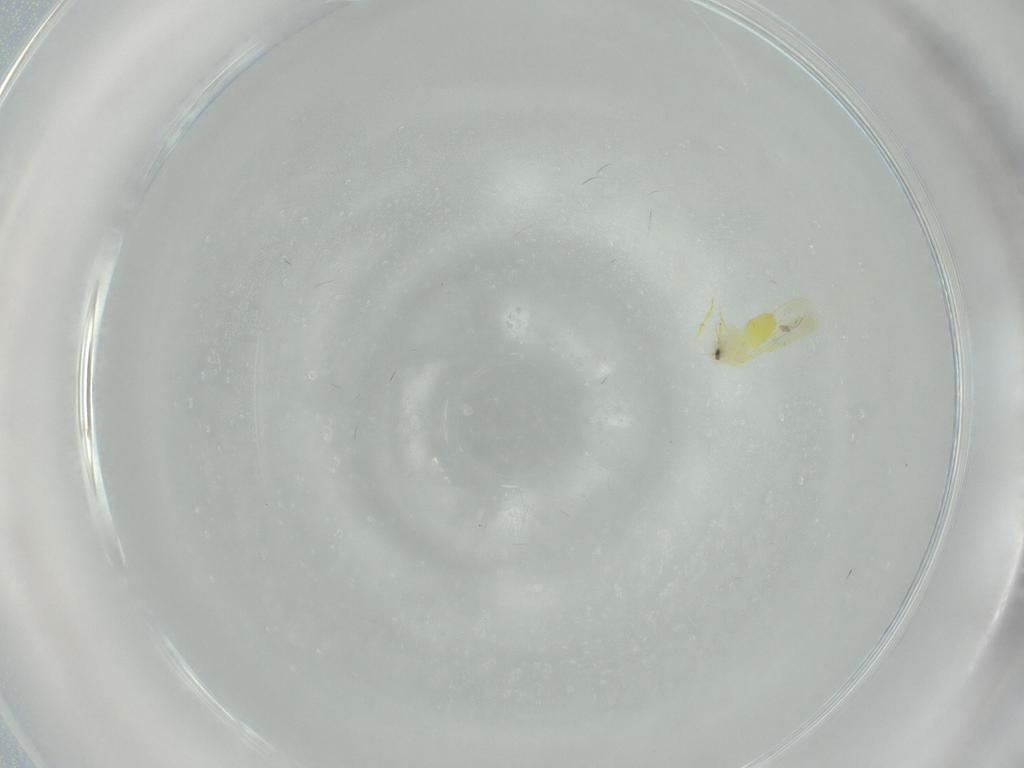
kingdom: Animalia
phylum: Arthropoda
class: Insecta
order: Hemiptera
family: Aleyrodidae
